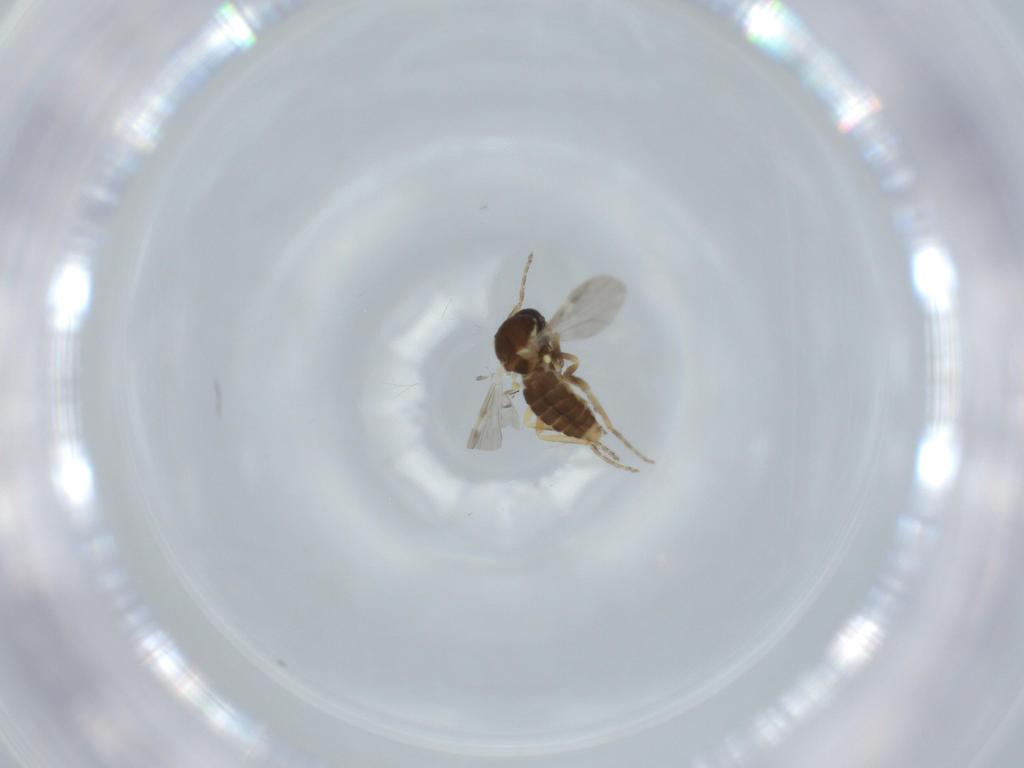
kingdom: Animalia
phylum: Arthropoda
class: Insecta
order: Diptera
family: Ceratopogonidae
